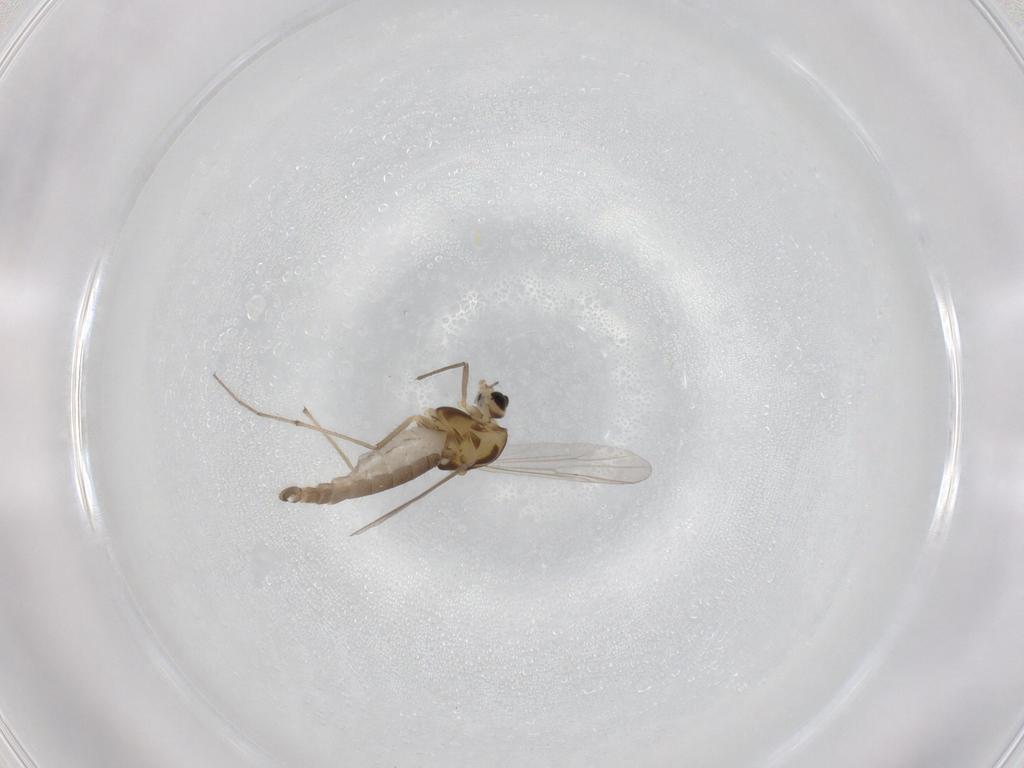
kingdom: Animalia
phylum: Arthropoda
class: Insecta
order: Diptera
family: Chironomidae
